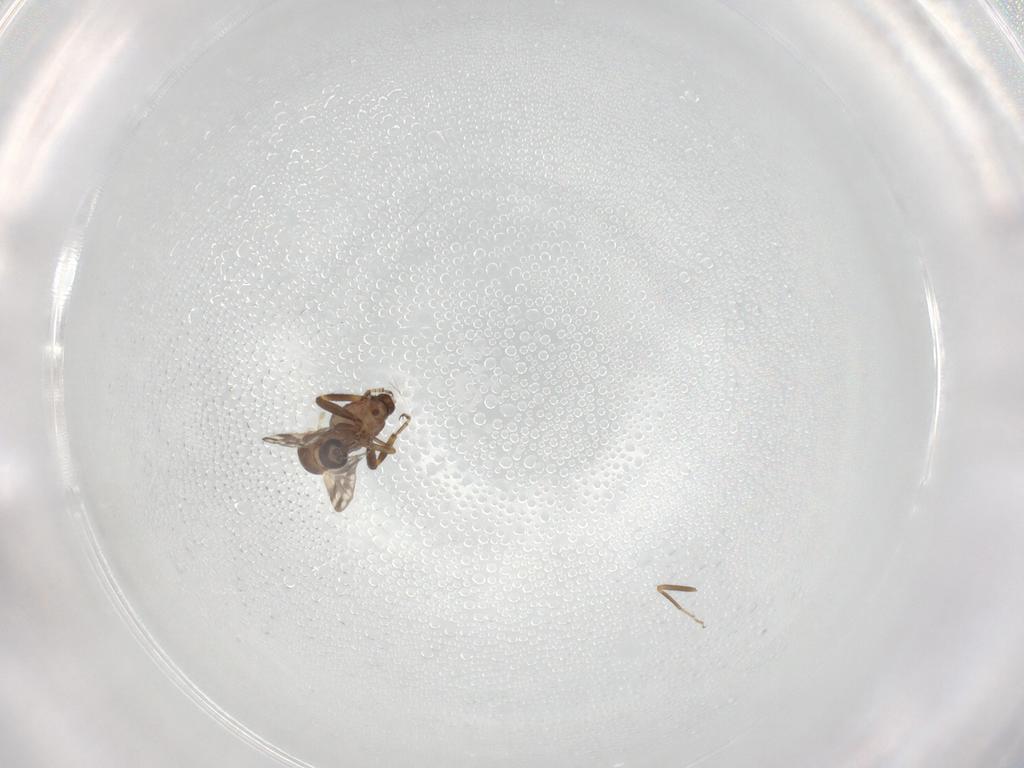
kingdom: Animalia
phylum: Arthropoda
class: Insecta
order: Diptera
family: Ceratopogonidae
